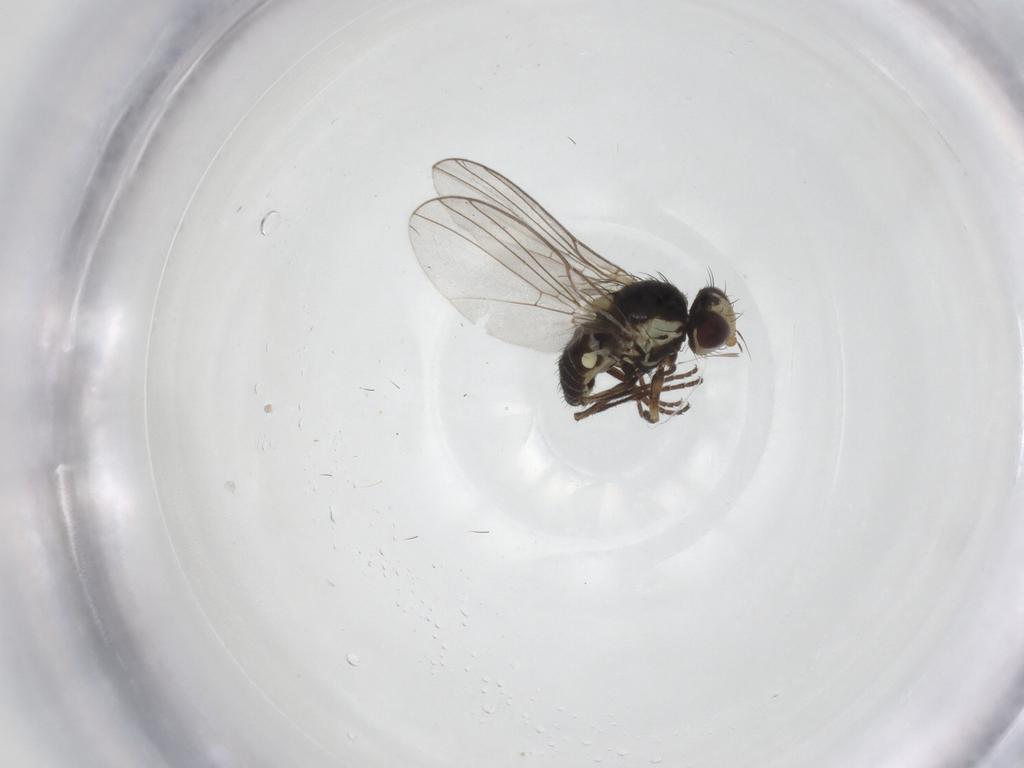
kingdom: Animalia
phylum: Arthropoda
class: Insecta
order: Diptera
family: Agromyzidae
